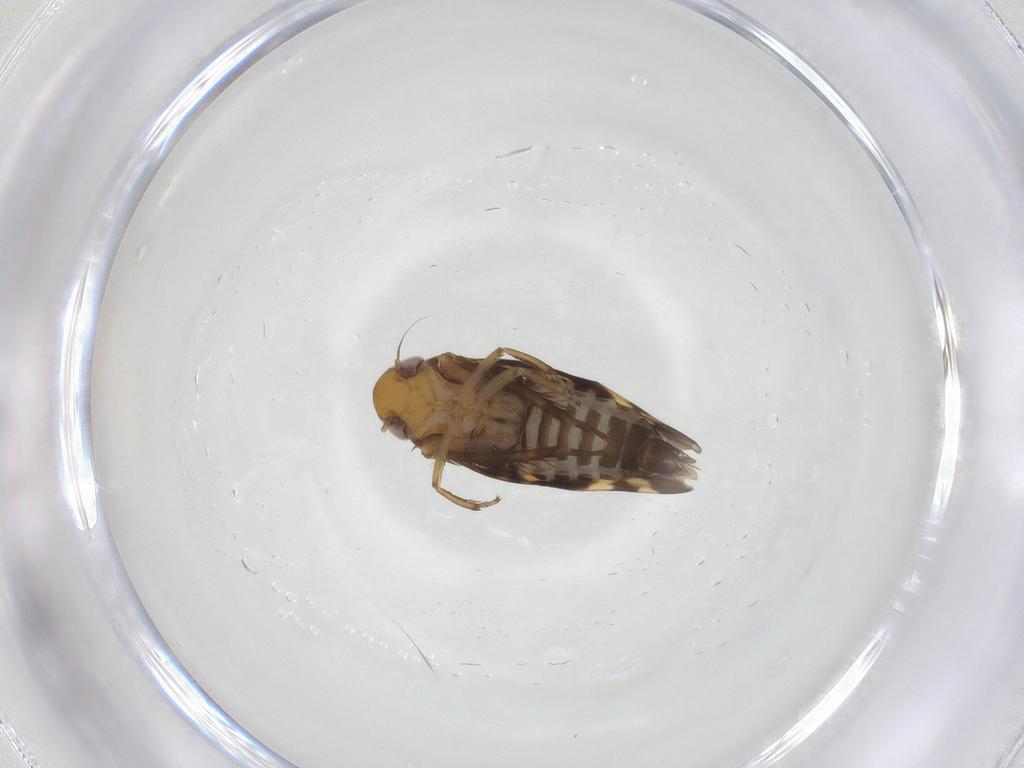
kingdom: Animalia
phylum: Arthropoda
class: Insecta
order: Hemiptera
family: Cicadellidae
